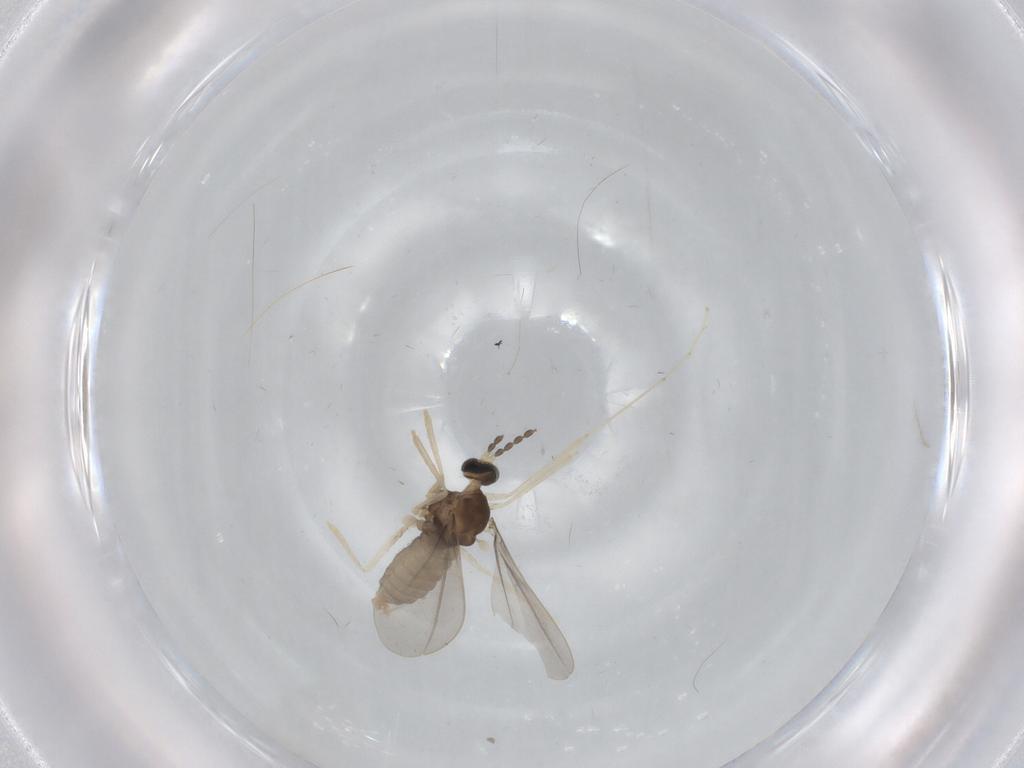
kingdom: Animalia
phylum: Arthropoda
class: Insecta
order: Diptera
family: Cecidomyiidae
